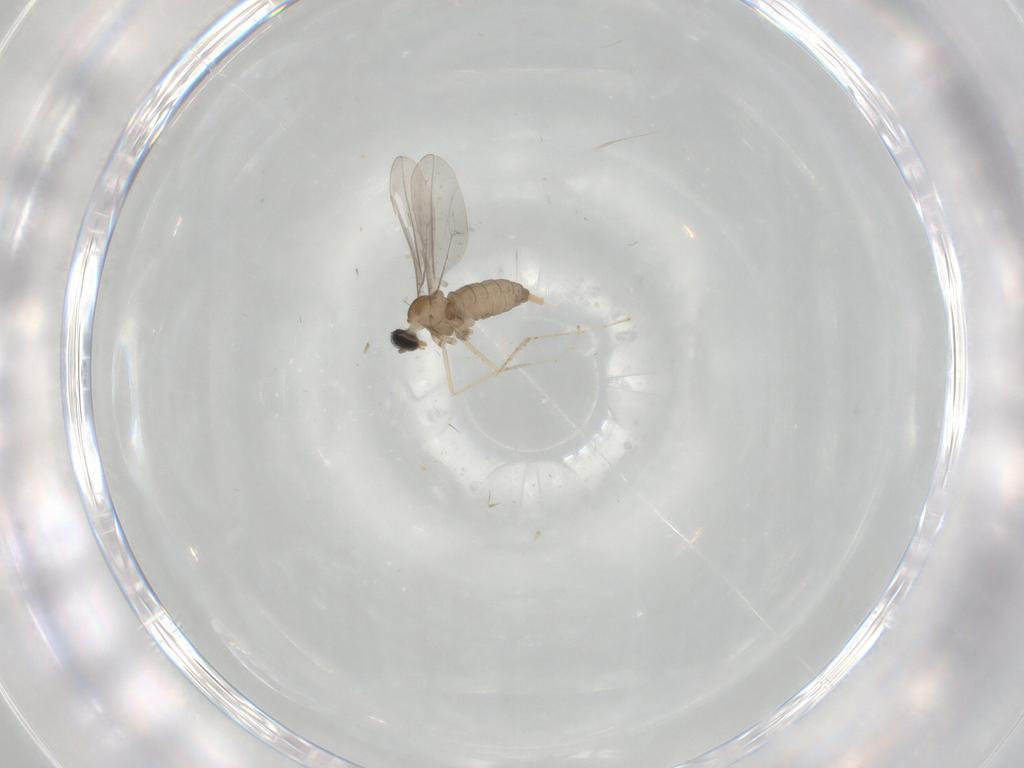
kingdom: Animalia
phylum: Arthropoda
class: Insecta
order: Diptera
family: Cecidomyiidae
